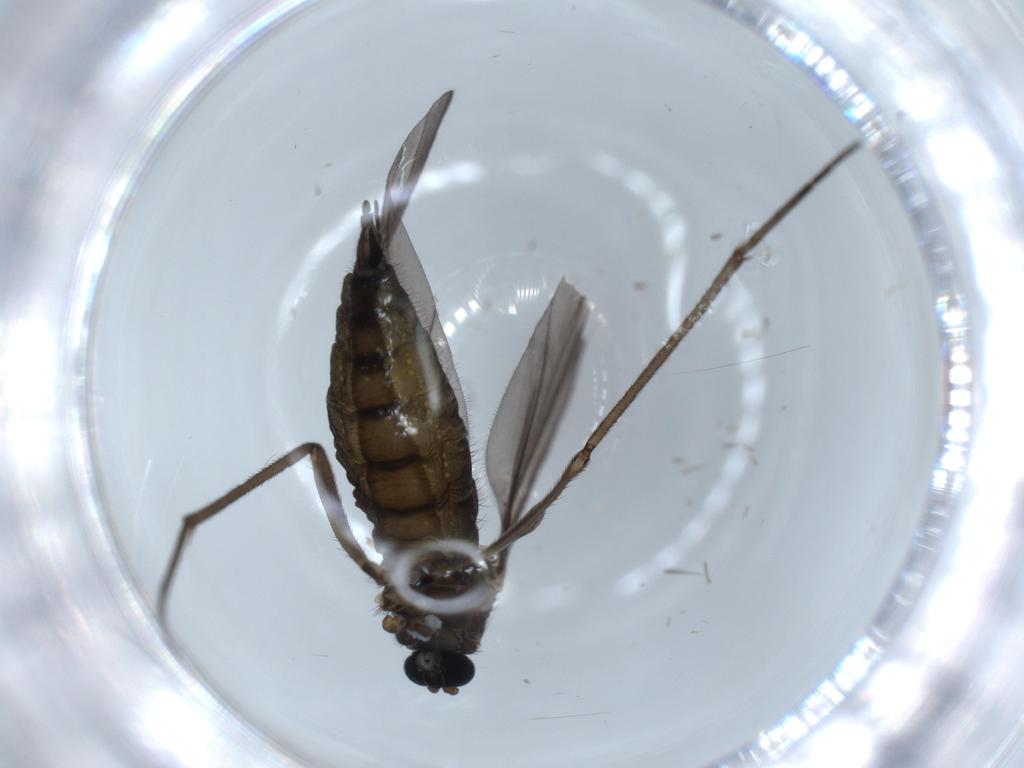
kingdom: Animalia
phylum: Arthropoda
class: Insecta
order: Diptera
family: Sciaridae
